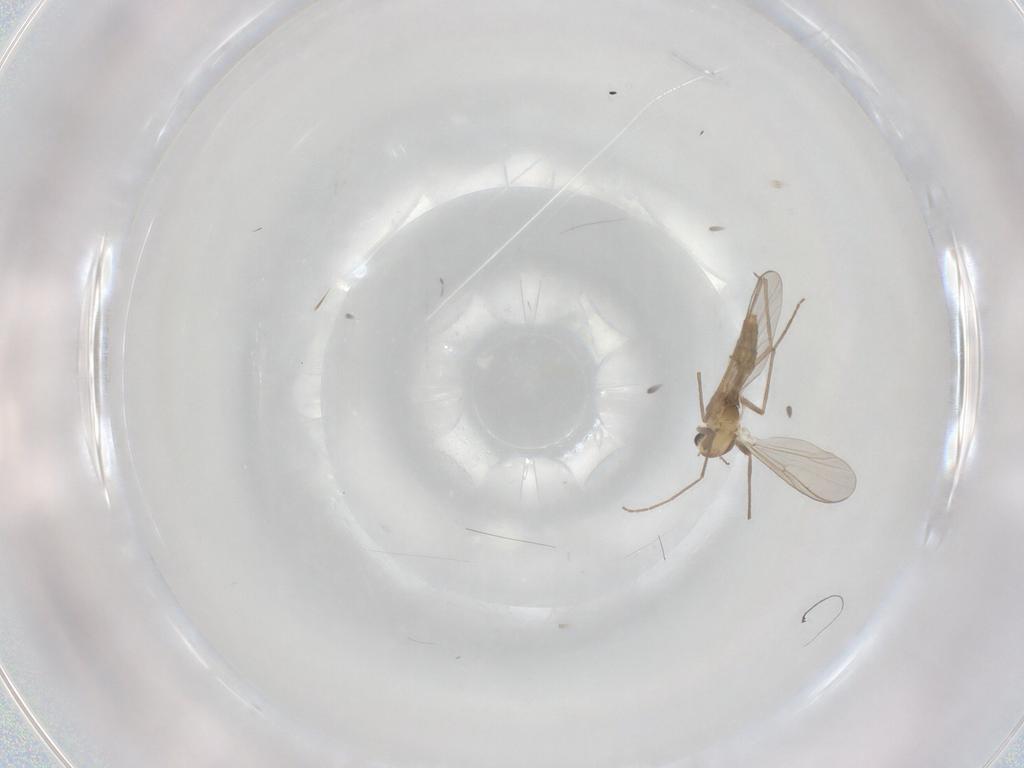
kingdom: Animalia
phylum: Arthropoda
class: Insecta
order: Diptera
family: Chironomidae
